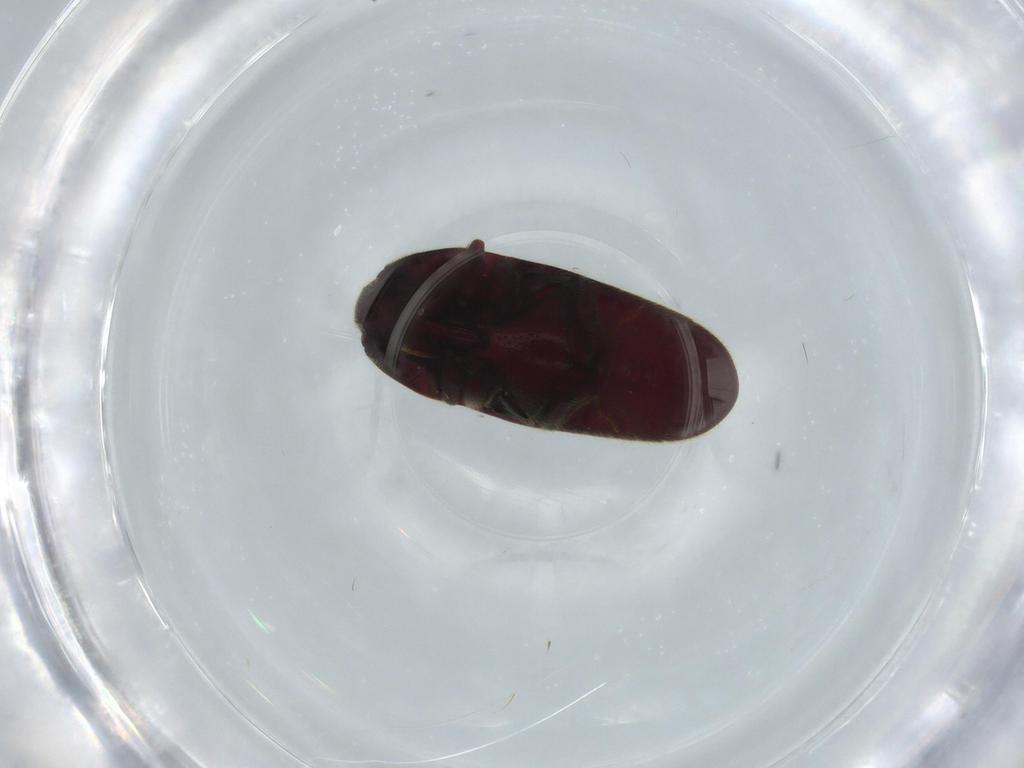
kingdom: Animalia
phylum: Arthropoda
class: Insecta
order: Coleoptera
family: Throscidae
